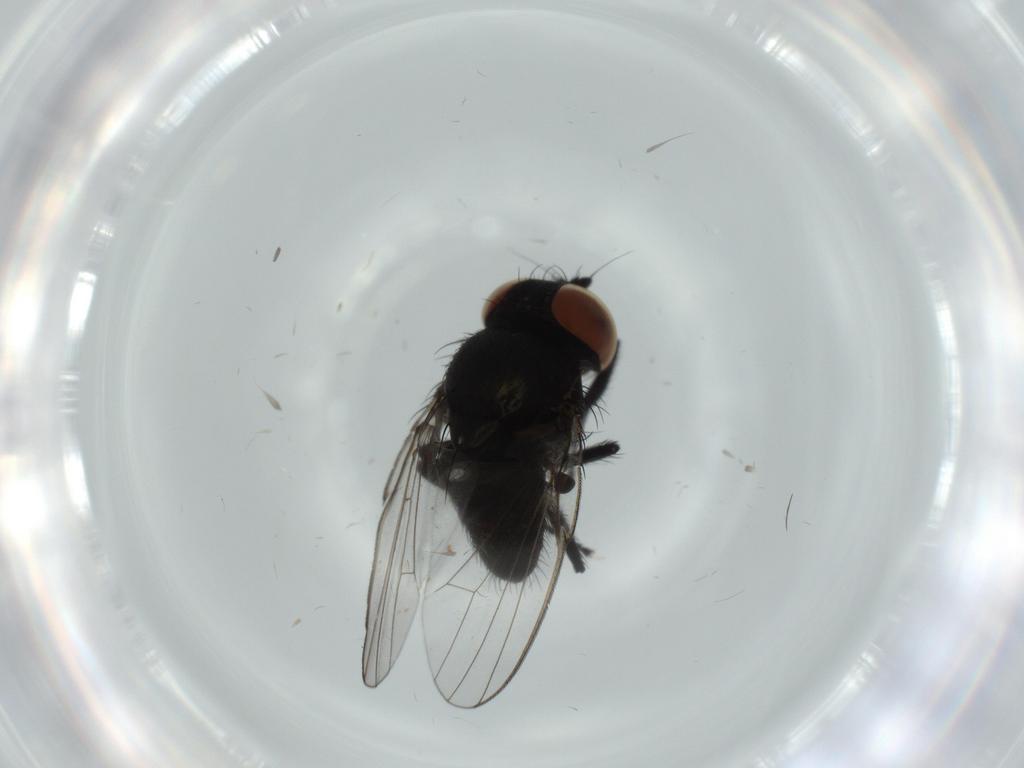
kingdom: Animalia
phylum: Arthropoda
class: Insecta
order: Diptera
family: Milichiidae
